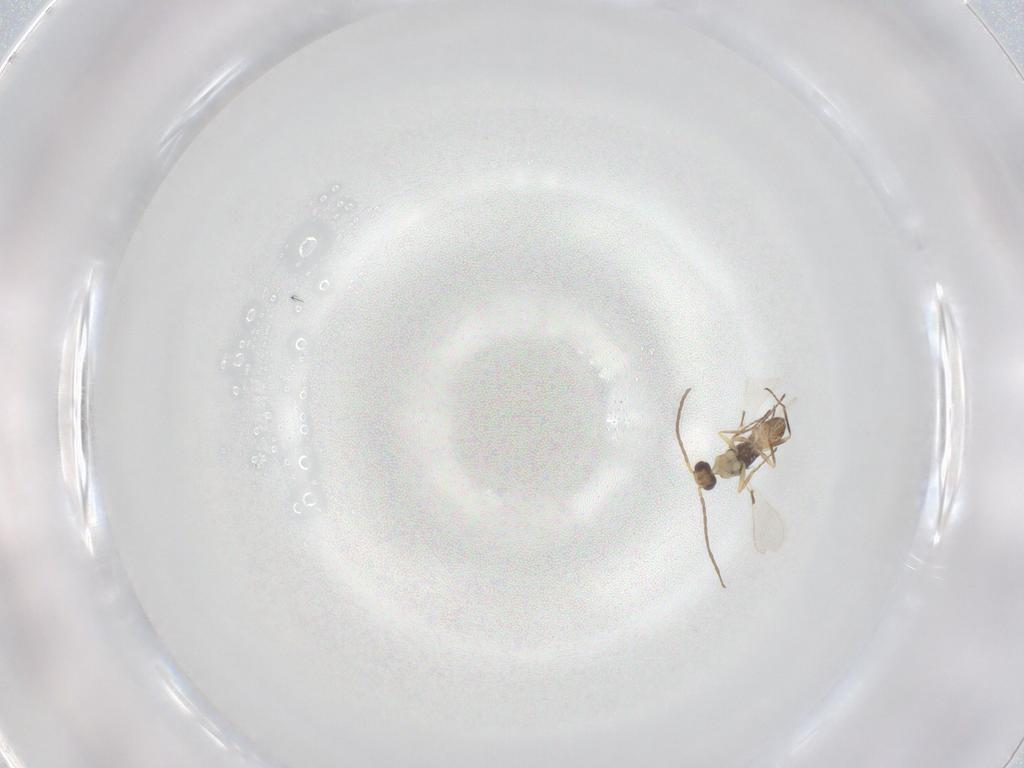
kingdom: Animalia
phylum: Arthropoda
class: Insecta
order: Hymenoptera
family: Mymaridae
